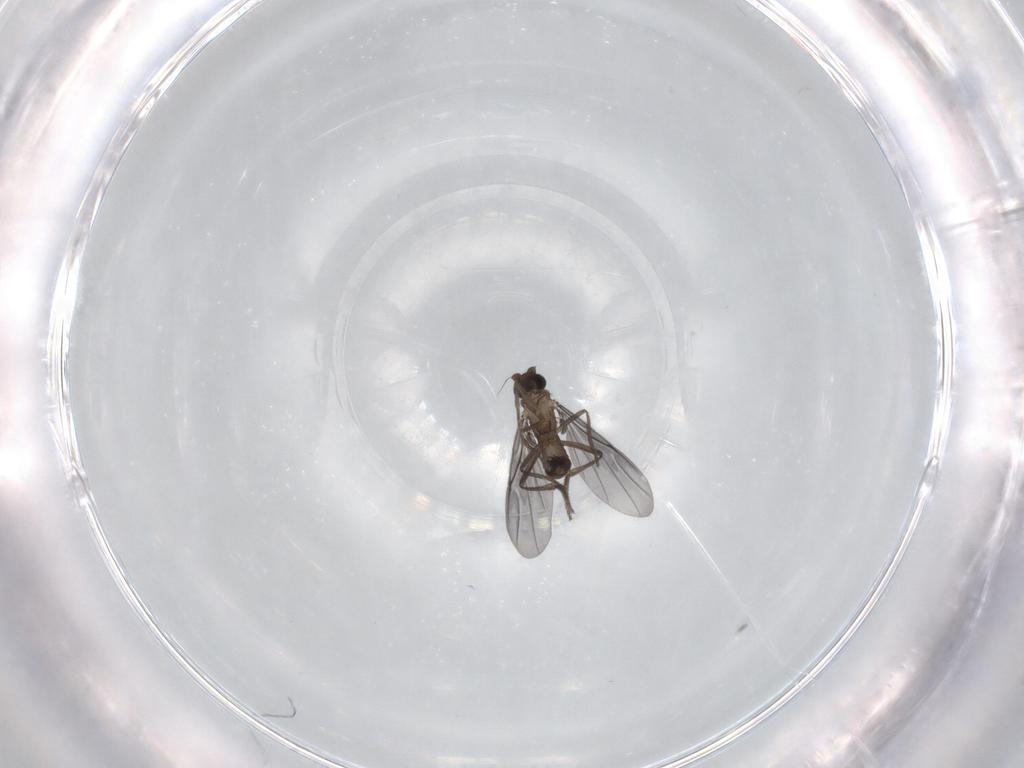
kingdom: Animalia
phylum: Arthropoda
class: Insecta
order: Diptera
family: Phoridae
